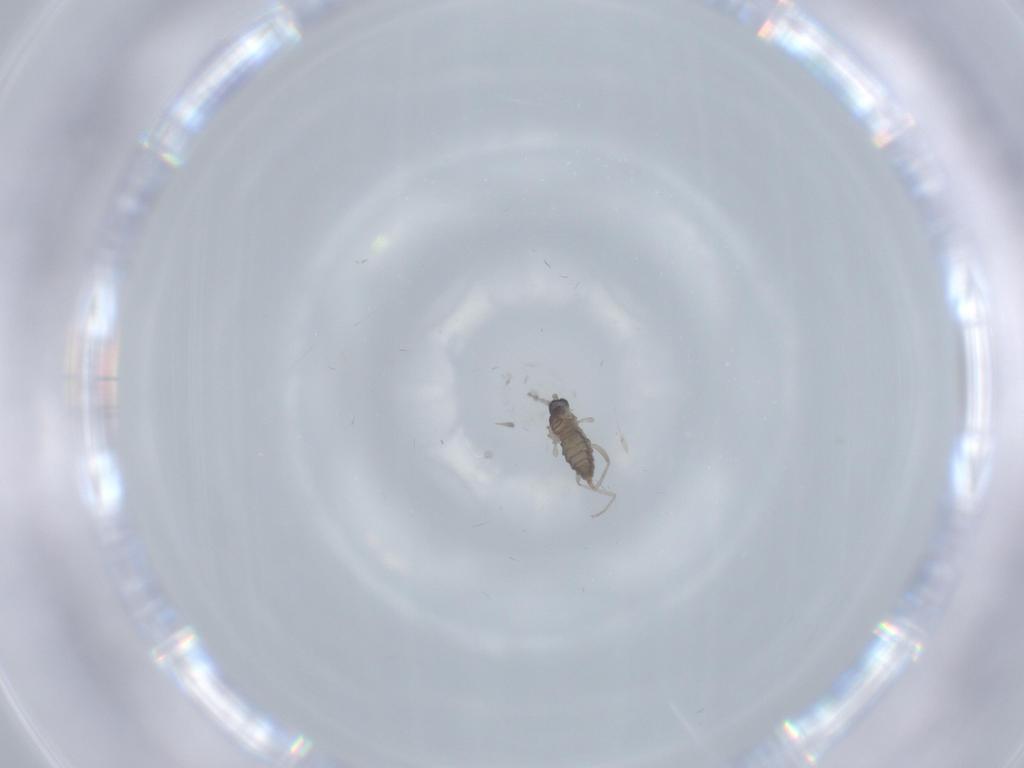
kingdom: Animalia
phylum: Arthropoda
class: Insecta
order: Diptera
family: Cecidomyiidae
